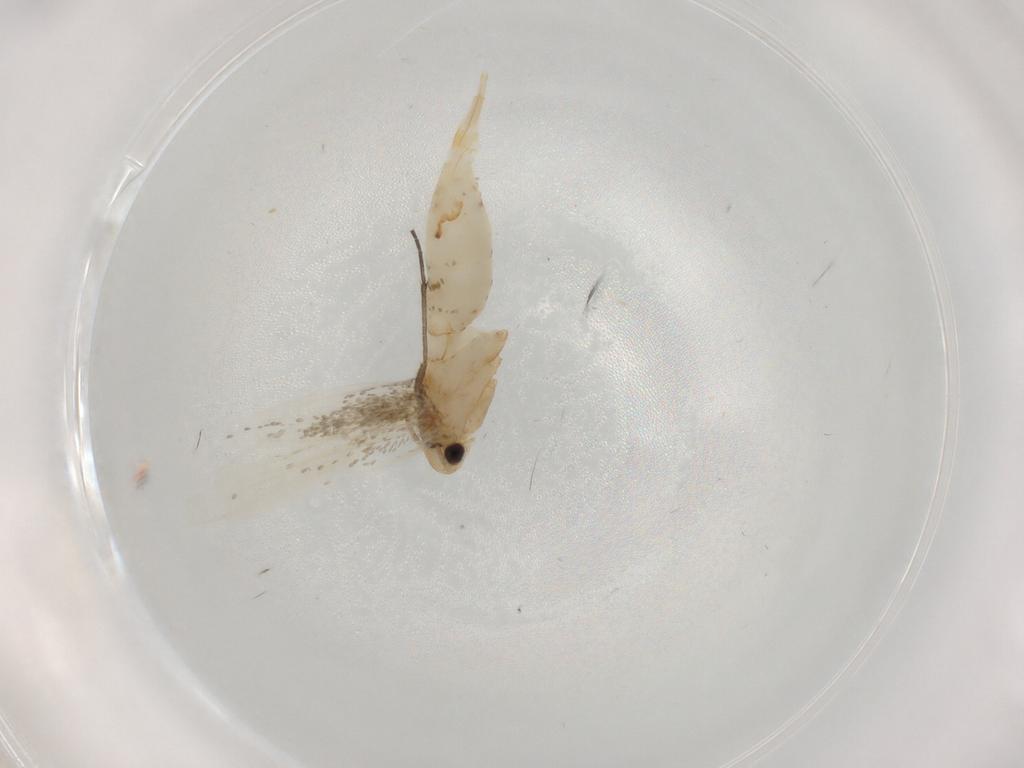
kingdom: Animalia
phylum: Arthropoda
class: Insecta
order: Lepidoptera
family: Tineidae
